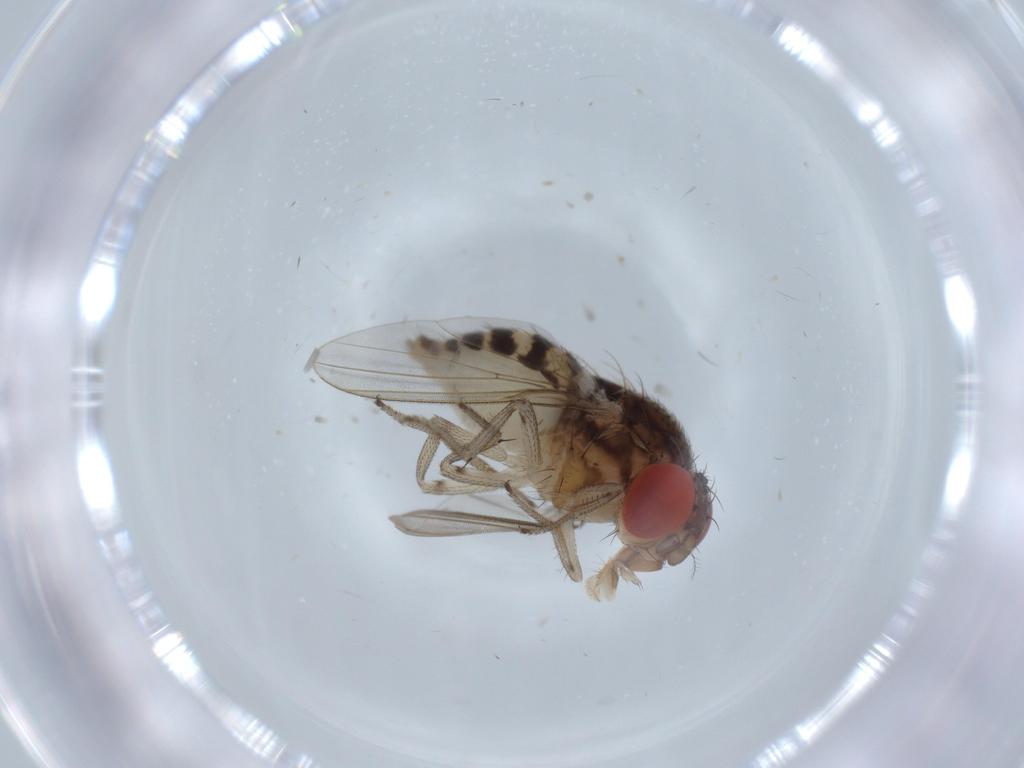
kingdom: Animalia
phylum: Arthropoda
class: Insecta
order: Diptera
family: Drosophilidae
